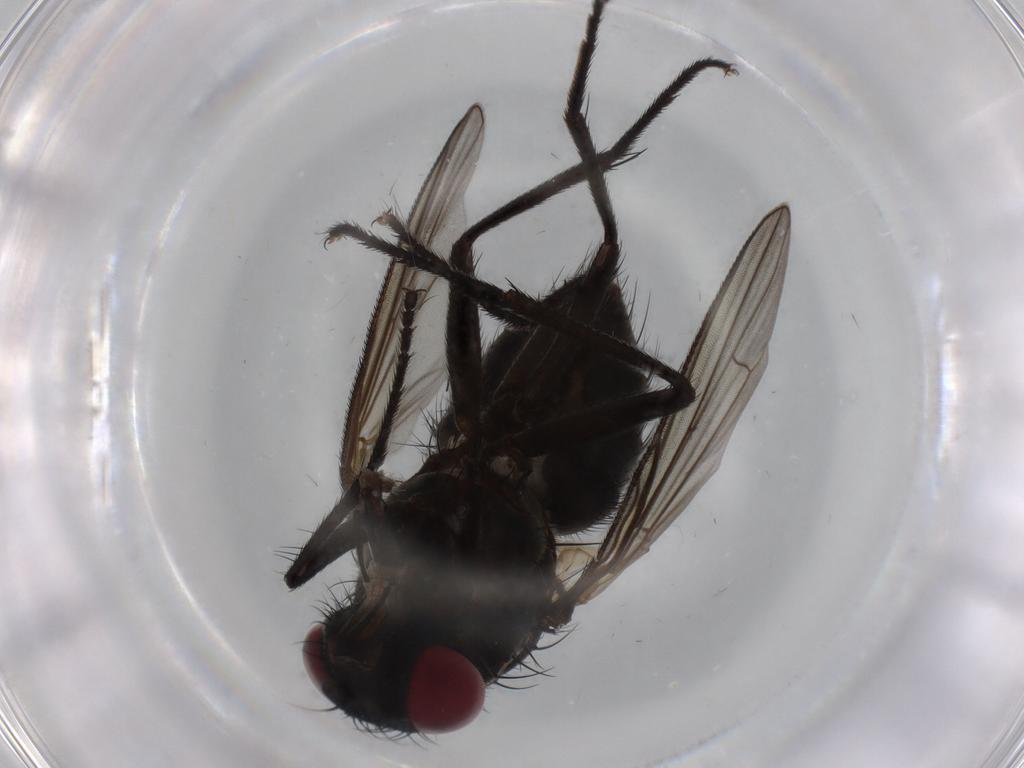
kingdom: Animalia
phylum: Arthropoda
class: Insecta
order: Diptera
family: Muscidae
